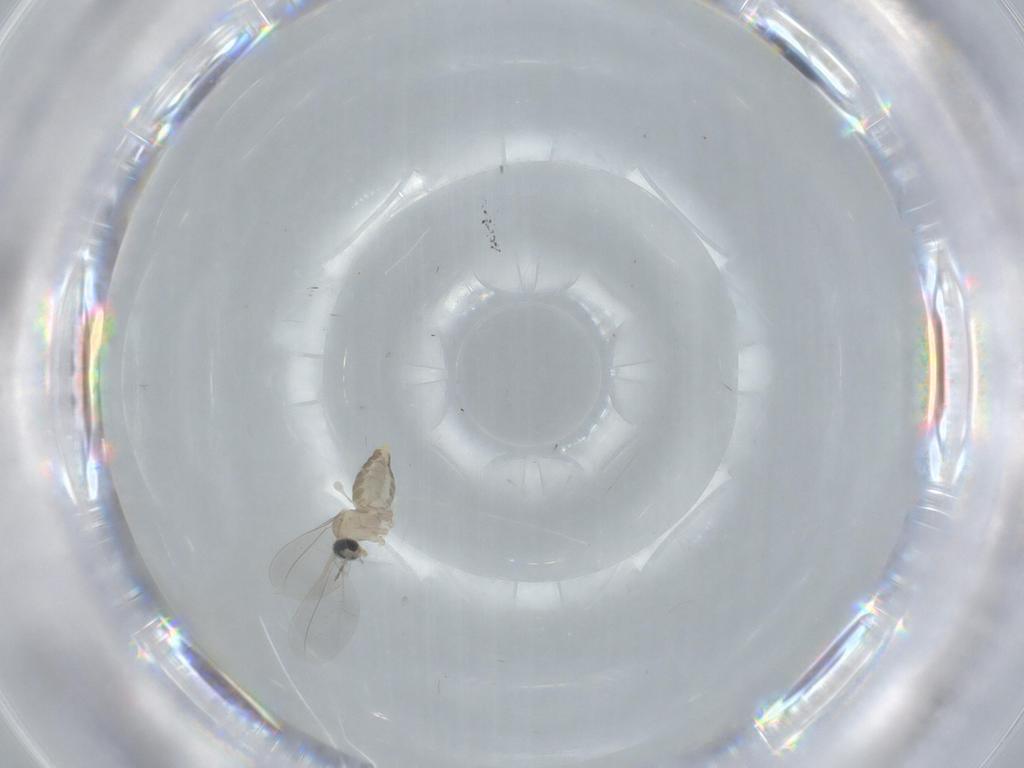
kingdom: Animalia
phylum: Arthropoda
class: Insecta
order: Diptera
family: Cecidomyiidae
